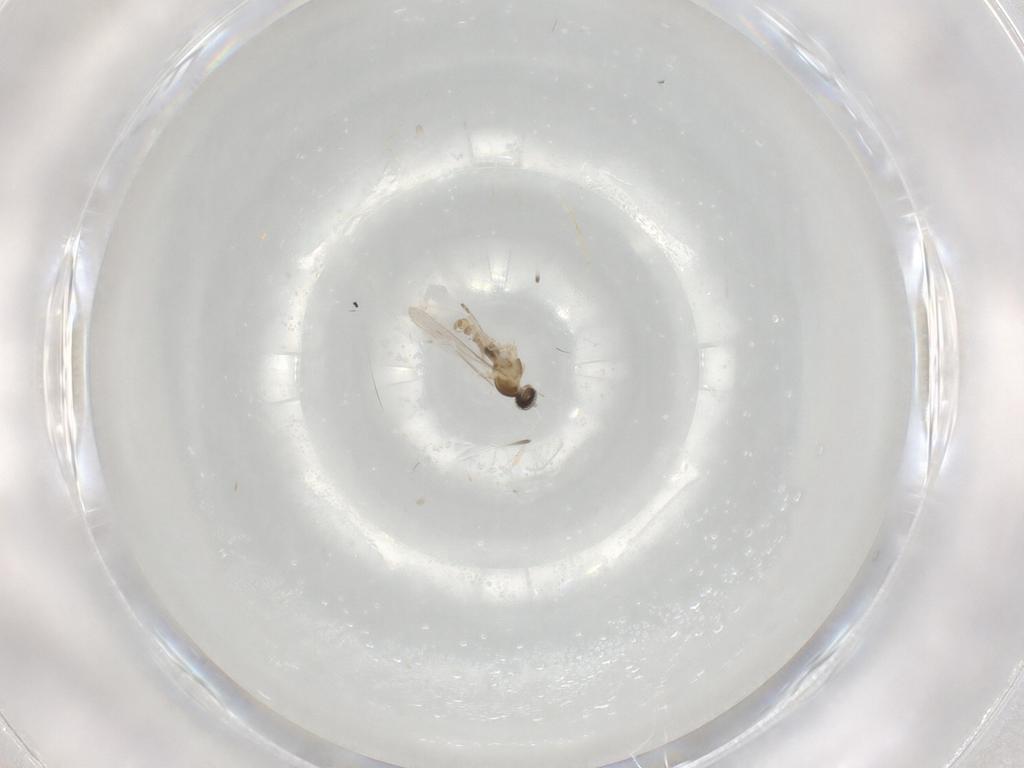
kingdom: Animalia
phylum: Arthropoda
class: Insecta
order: Diptera
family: Cecidomyiidae
